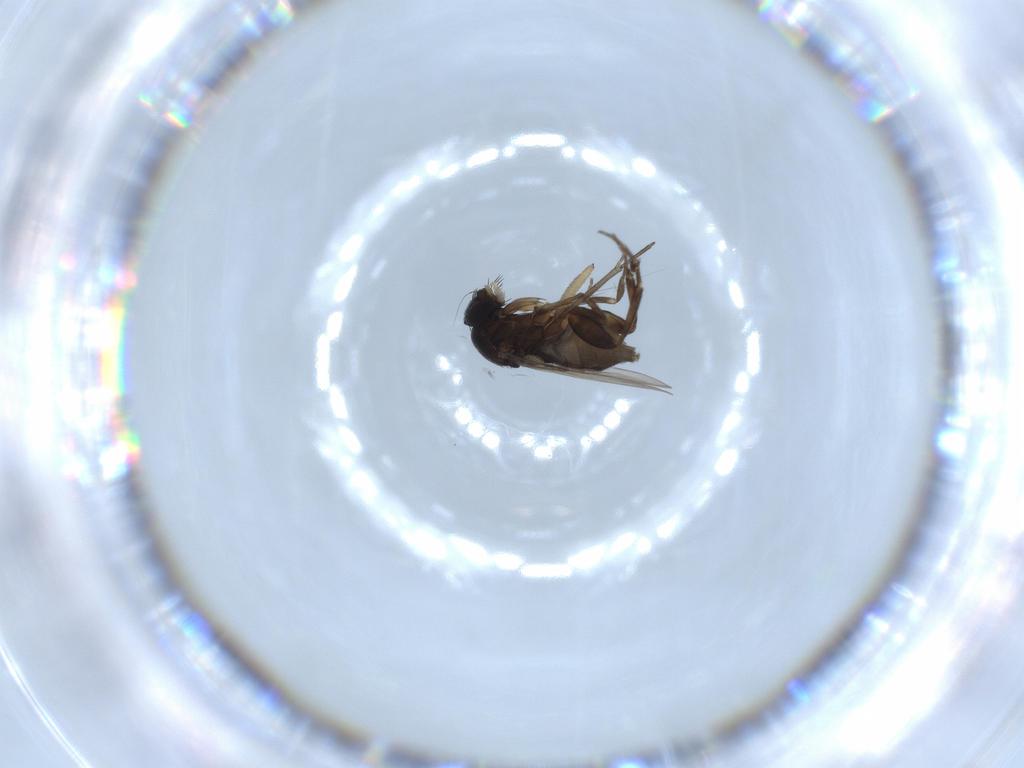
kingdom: Animalia
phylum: Arthropoda
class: Insecta
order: Diptera
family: Phoridae
